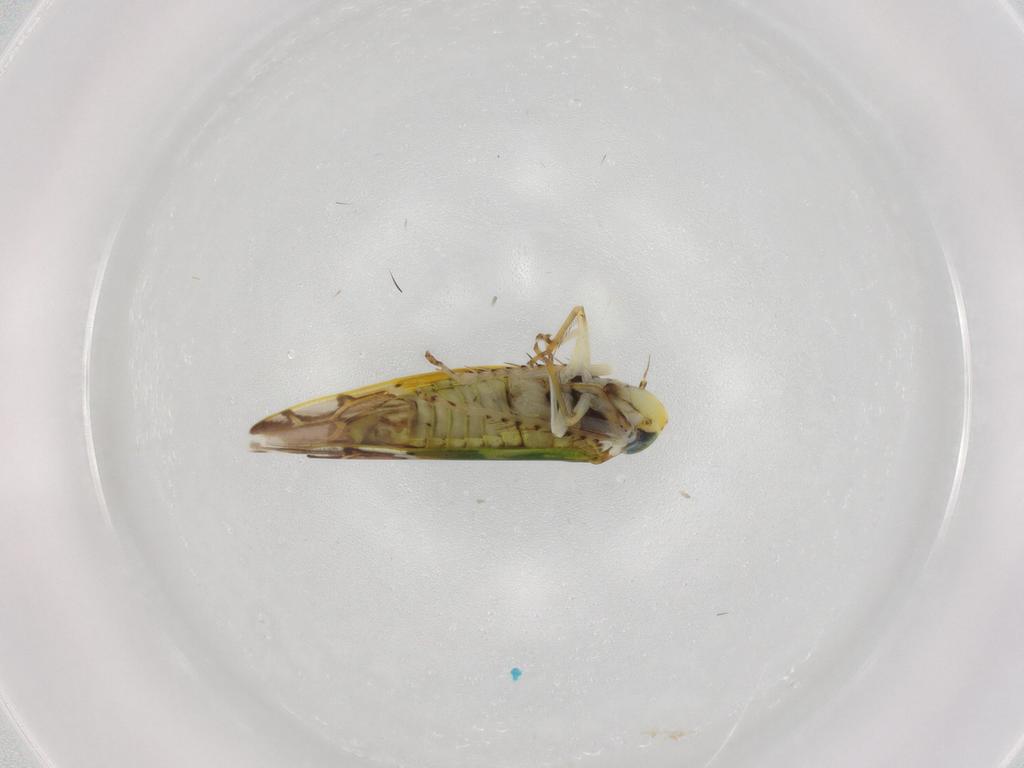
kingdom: Animalia
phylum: Arthropoda
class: Insecta
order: Hemiptera
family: Cicadellidae
